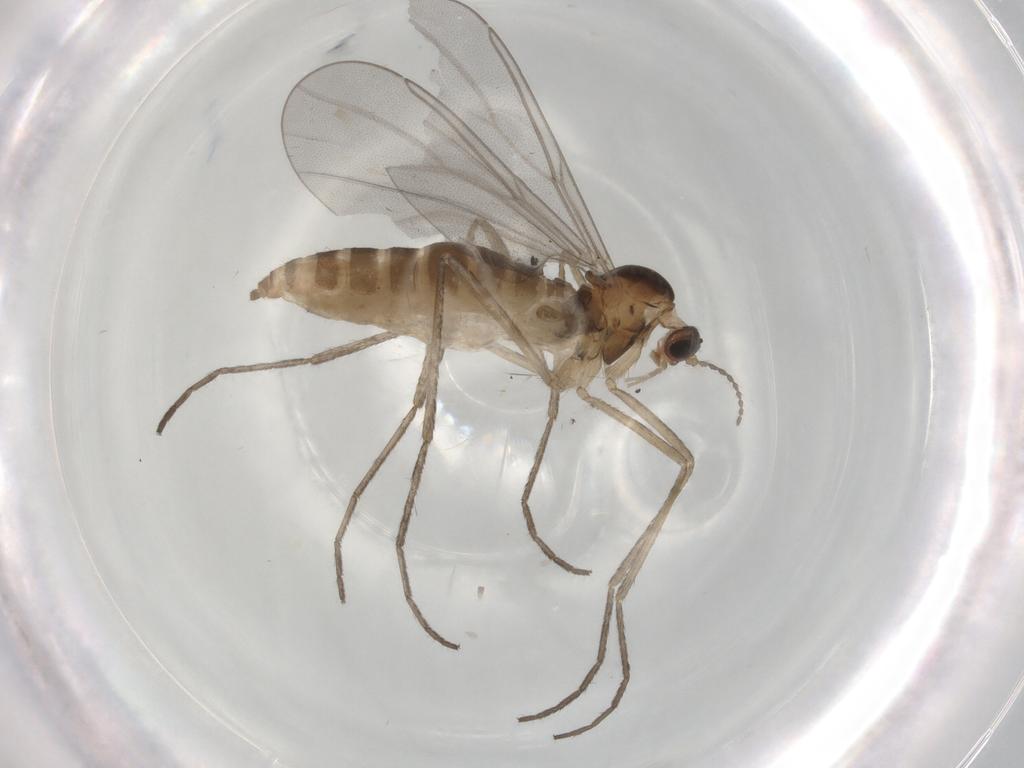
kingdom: Animalia
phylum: Arthropoda
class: Insecta
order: Diptera
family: Cecidomyiidae
